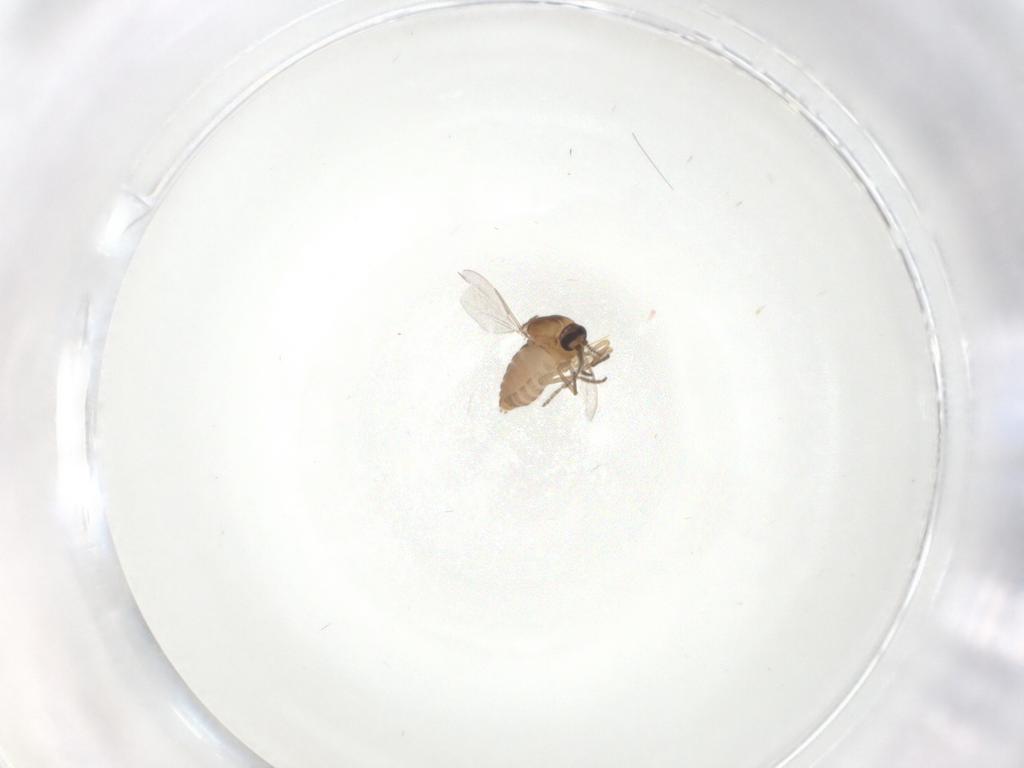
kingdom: Animalia
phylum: Arthropoda
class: Insecta
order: Diptera
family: Ceratopogonidae
